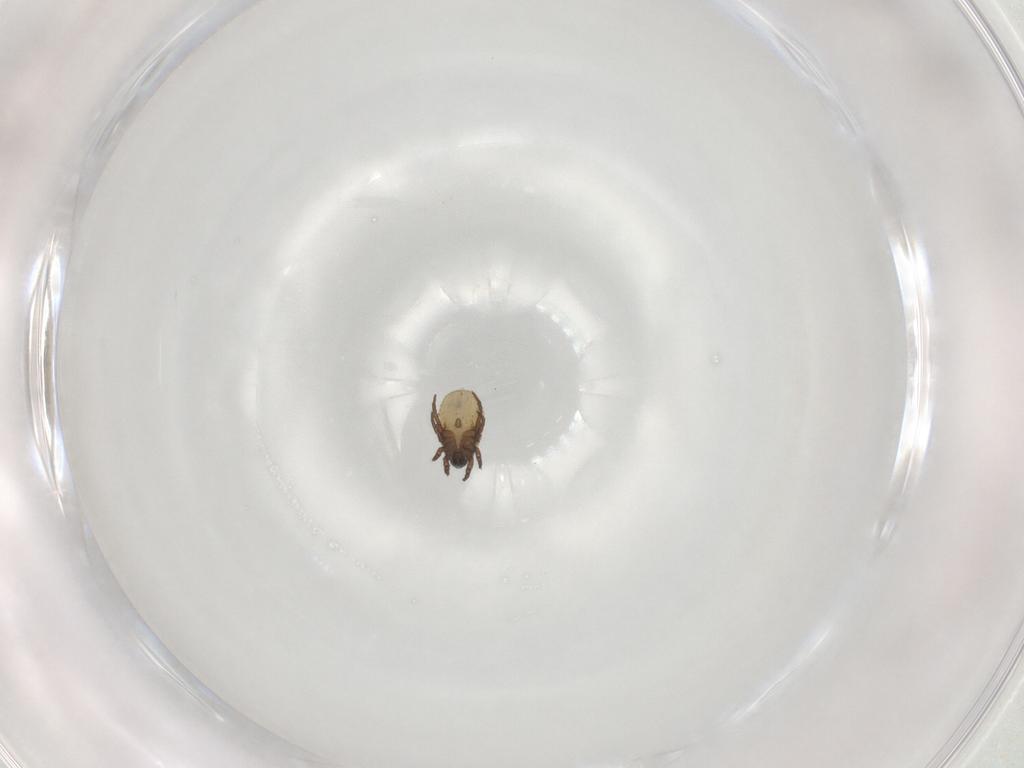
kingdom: Animalia
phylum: Arthropoda
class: Arachnida
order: Sarcoptiformes
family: Crotoniidae
